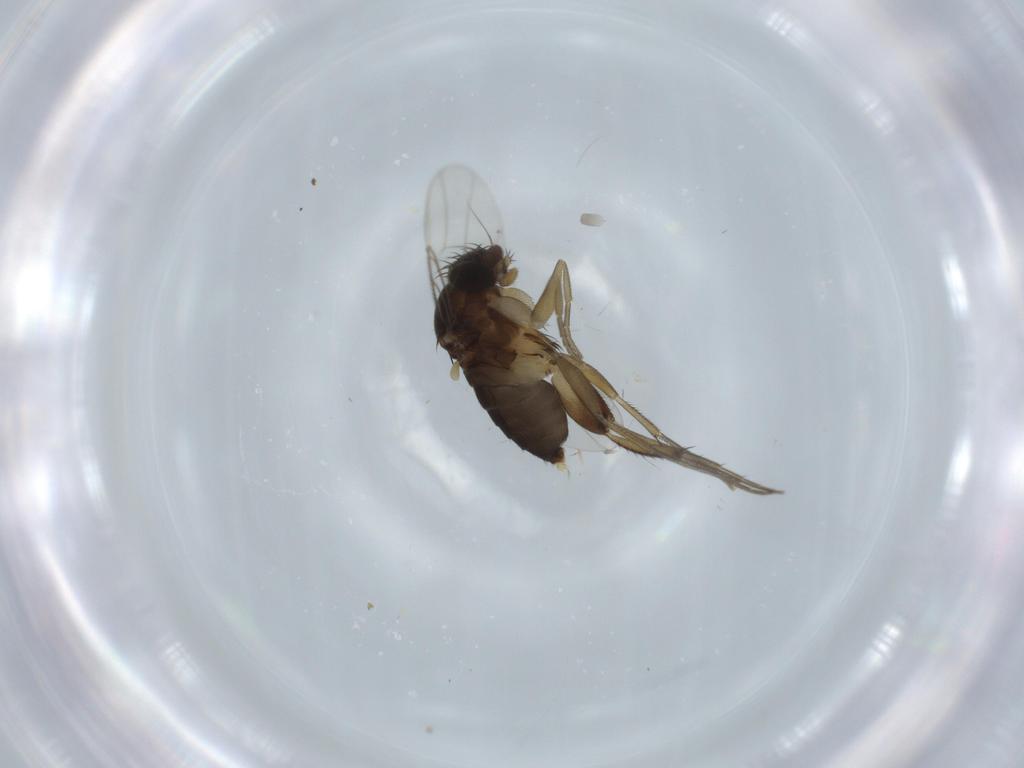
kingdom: Animalia
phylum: Arthropoda
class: Insecta
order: Diptera
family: Phoridae
